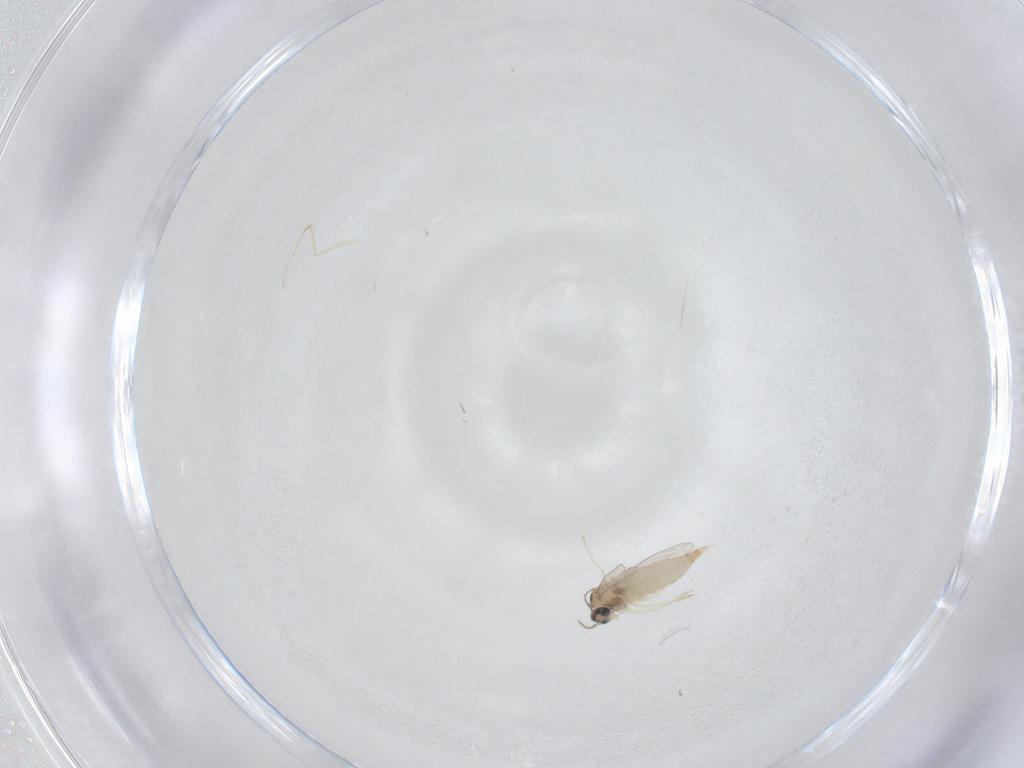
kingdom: Animalia
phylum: Arthropoda
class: Insecta
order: Diptera
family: Cecidomyiidae
